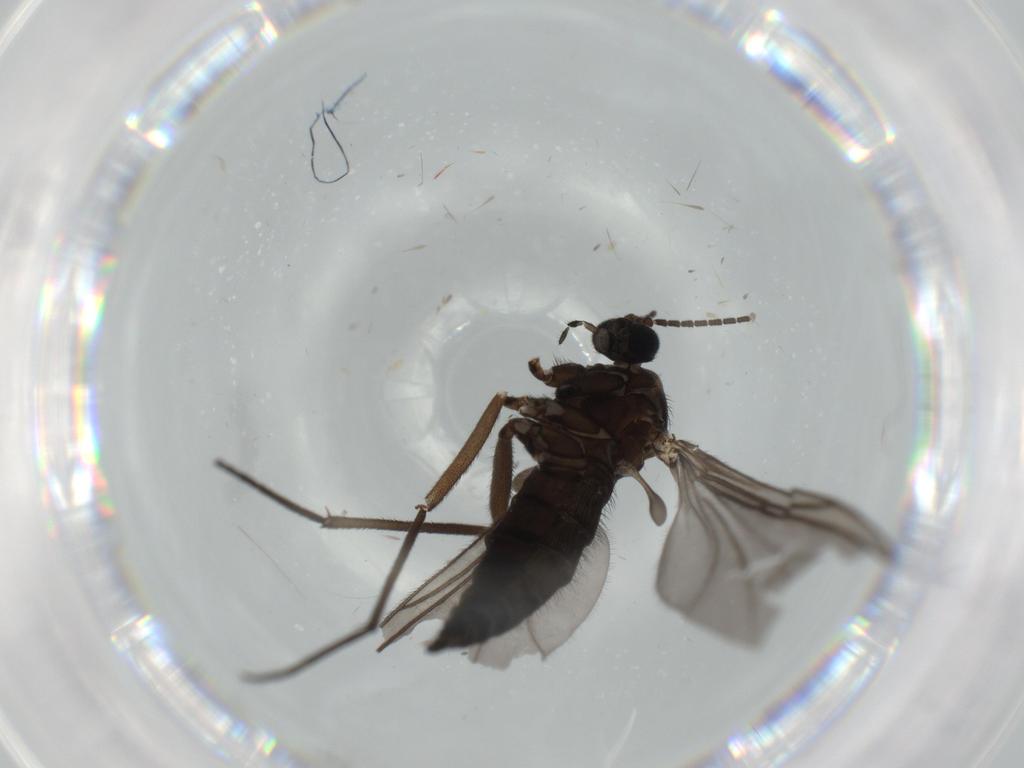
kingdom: Animalia
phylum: Arthropoda
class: Insecta
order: Diptera
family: Sciaridae
